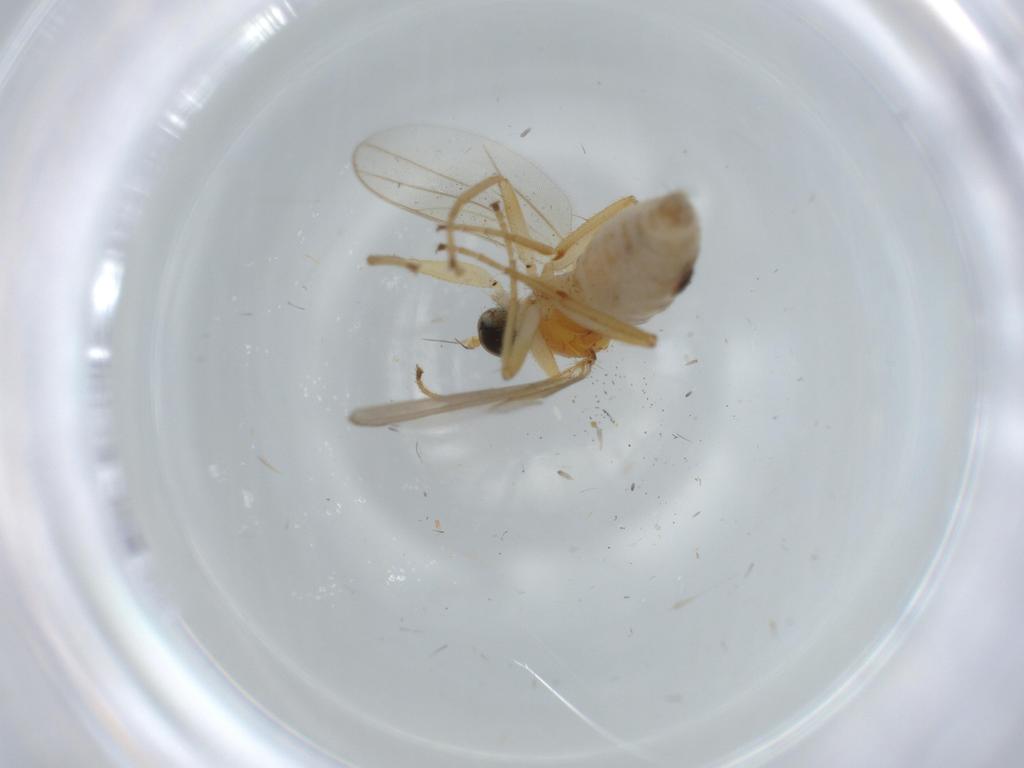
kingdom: Animalia
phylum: Arthropoda
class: Insecta
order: Diptera
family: Hybotidae
